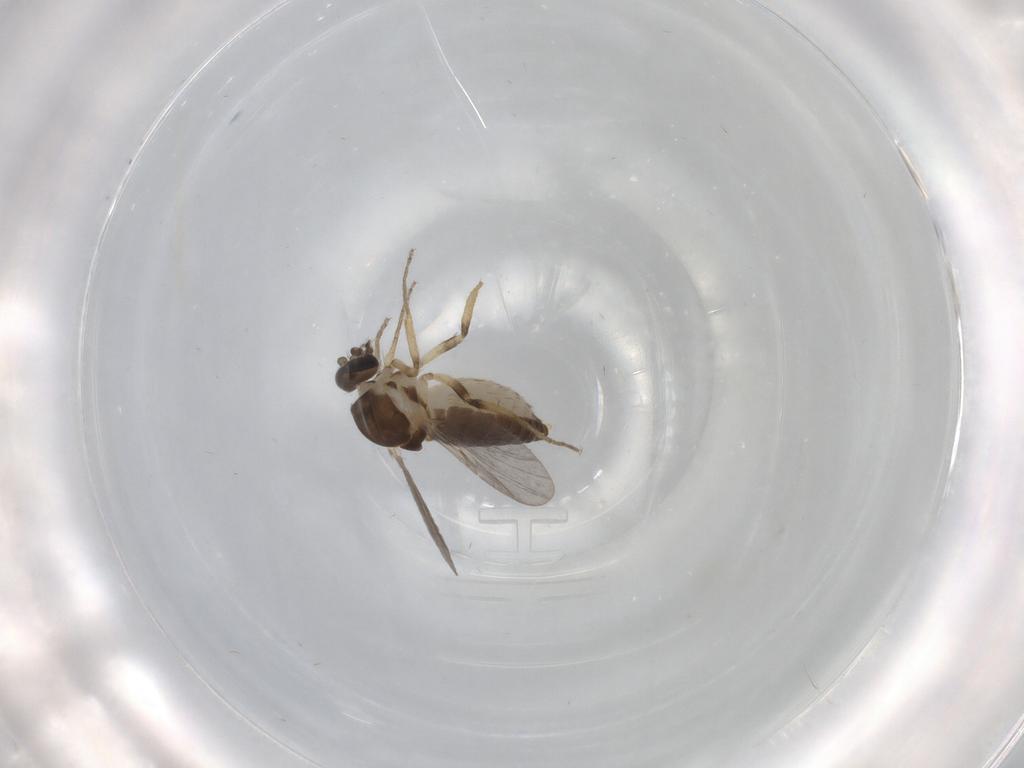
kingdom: Animalia
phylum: Arthropoda
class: Insecta
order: Diptera
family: Ceratopogonidae
